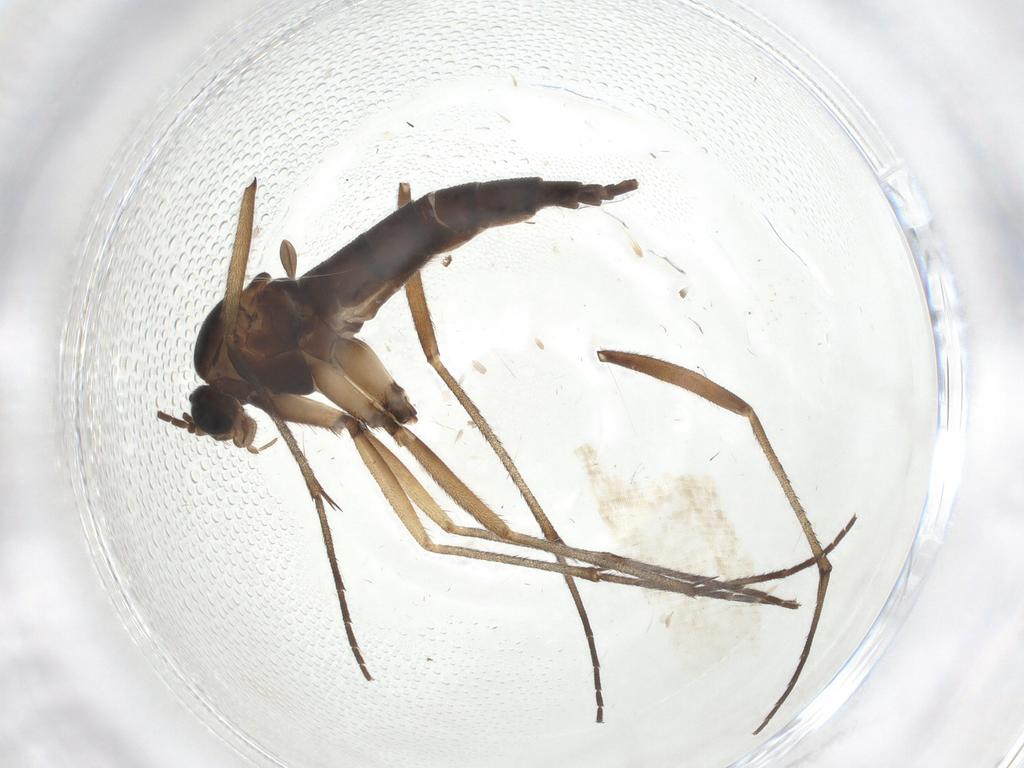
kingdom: Animalia
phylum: Arthropoda
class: Insecta
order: Diptera
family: Sciaridae
